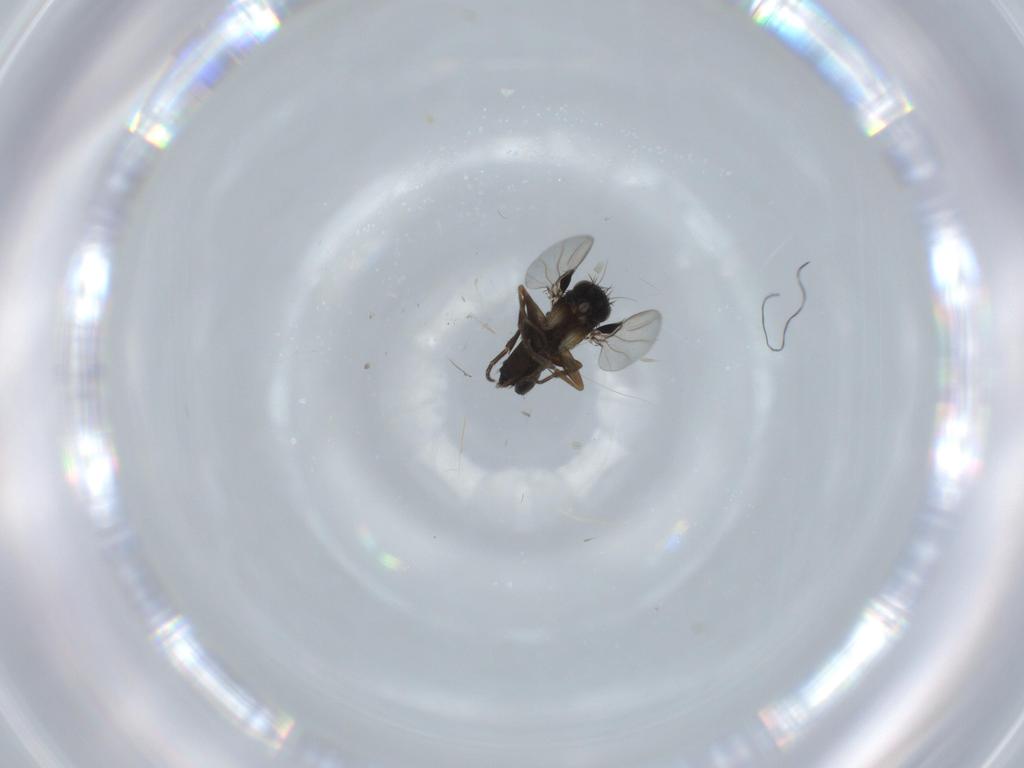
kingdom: Animalia
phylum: Arthropoda
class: Insecta
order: Diptera
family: Phoridae
